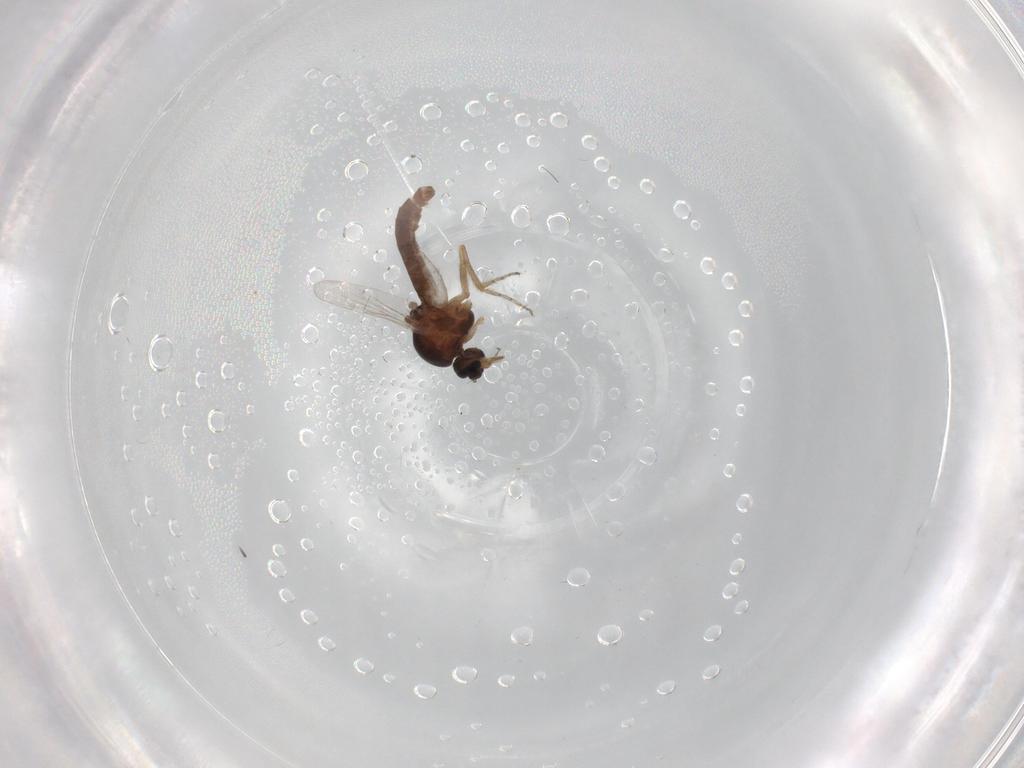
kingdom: Animalia
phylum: Arthropoda
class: Insecta
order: Diptera
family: Ceratopogonidae
